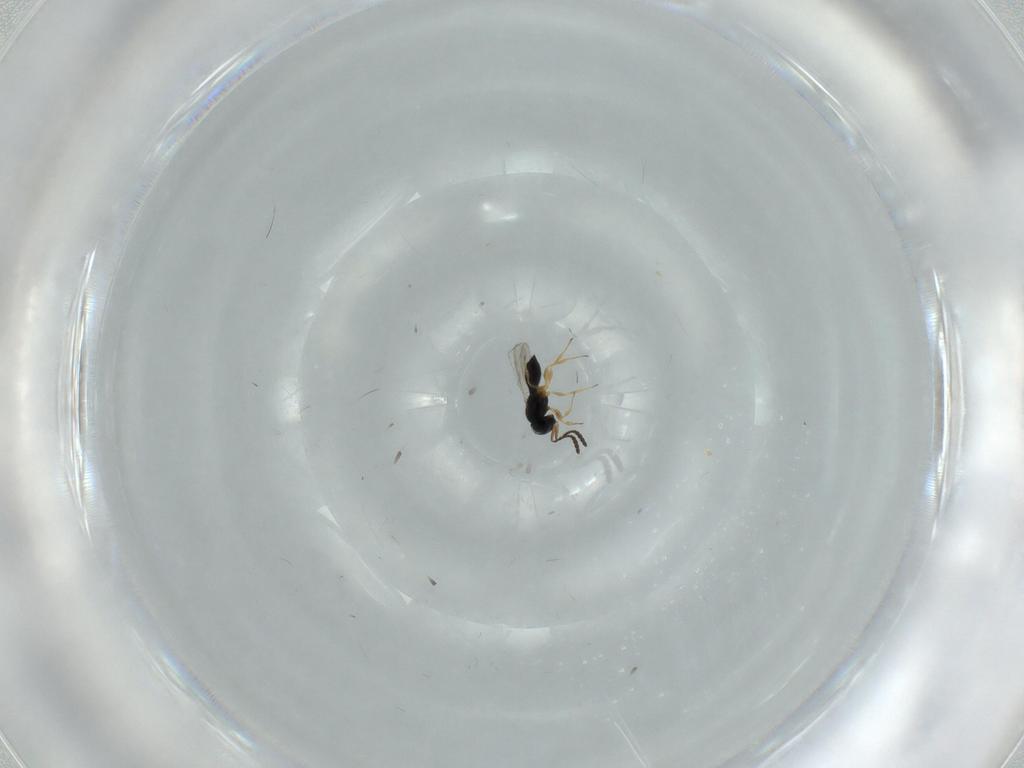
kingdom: Animalia
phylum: Arthropoda
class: Insecta
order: Hymenoptera
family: Scelionidae
